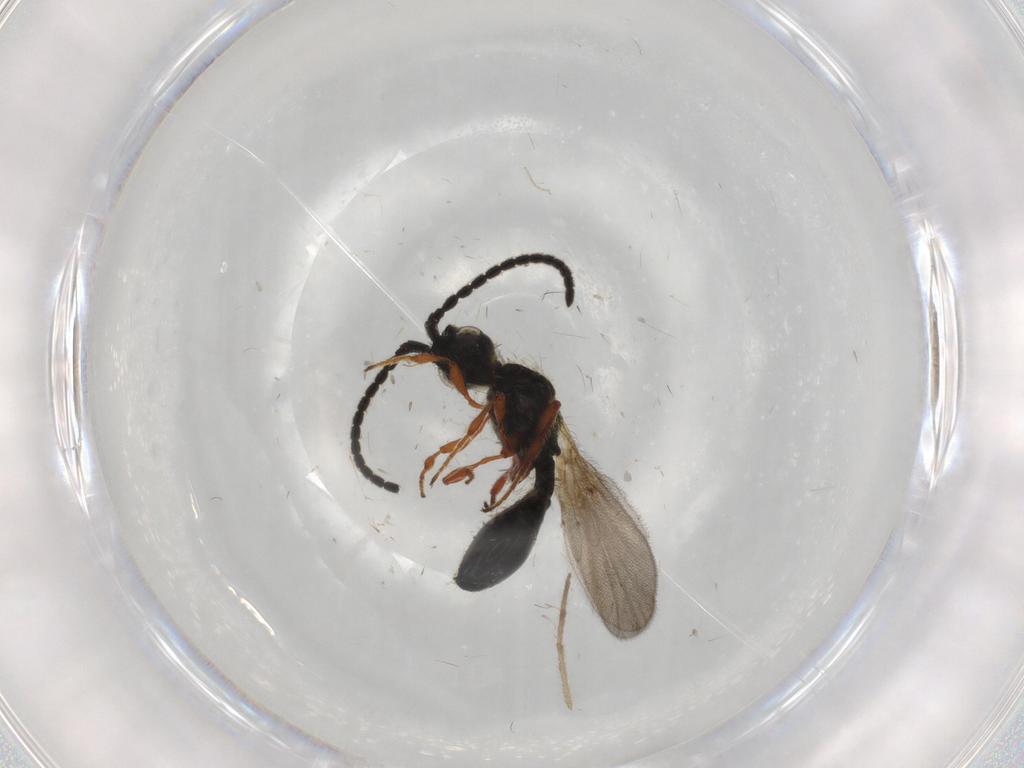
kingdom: Animalia
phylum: Arthropoda
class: Insecta
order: Hymenoptera
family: Diapriidae
